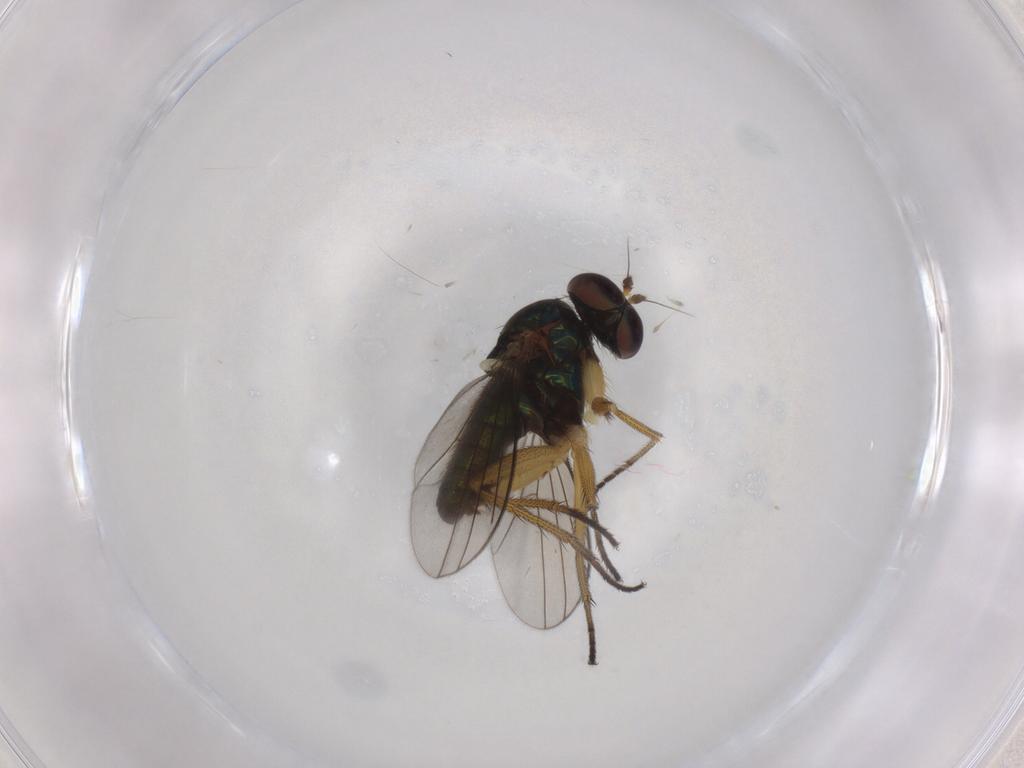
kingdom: Animalia
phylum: Arthropoda
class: Insecta
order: Diptera
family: Dolichopodidae
